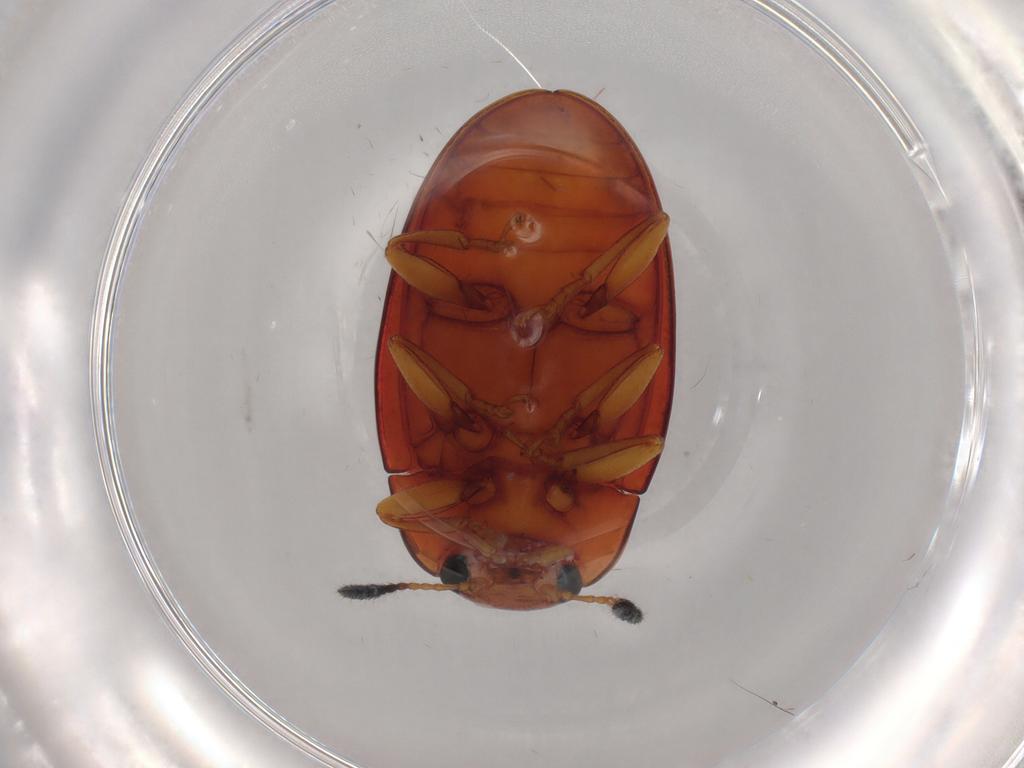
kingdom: Animalia
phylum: Arthropoda
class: Insecta
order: Coleoptera
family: Erotylidae
